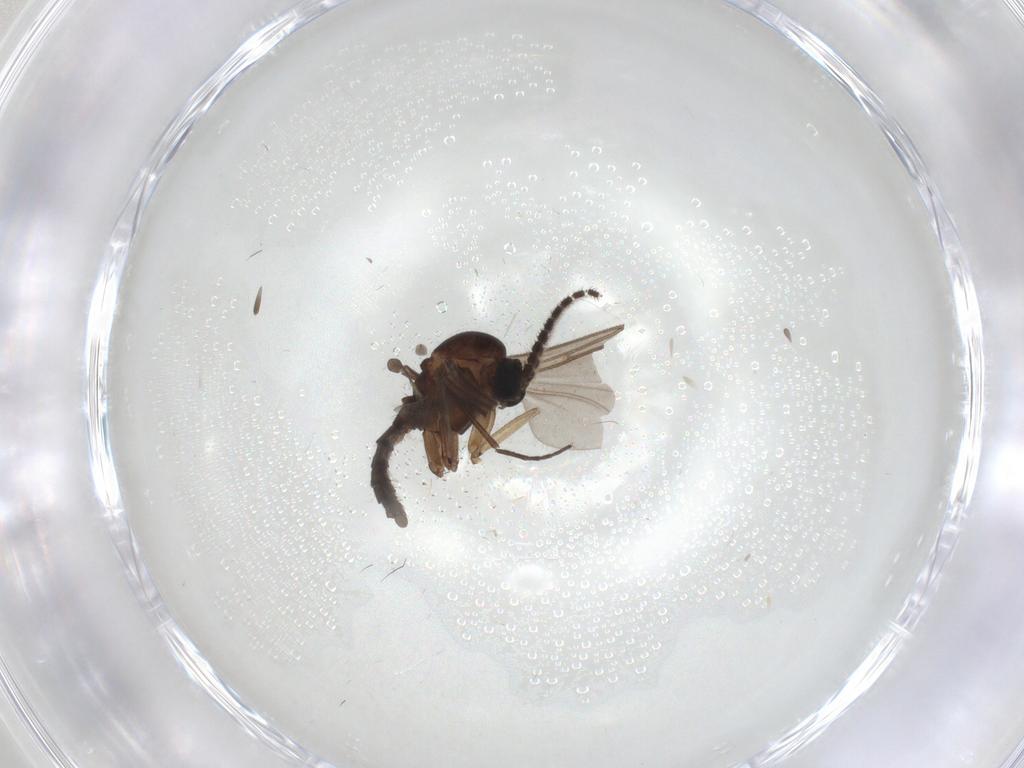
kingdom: Animalia
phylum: Arthropoda
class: Insecta
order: Diptera
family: Sciaridae
